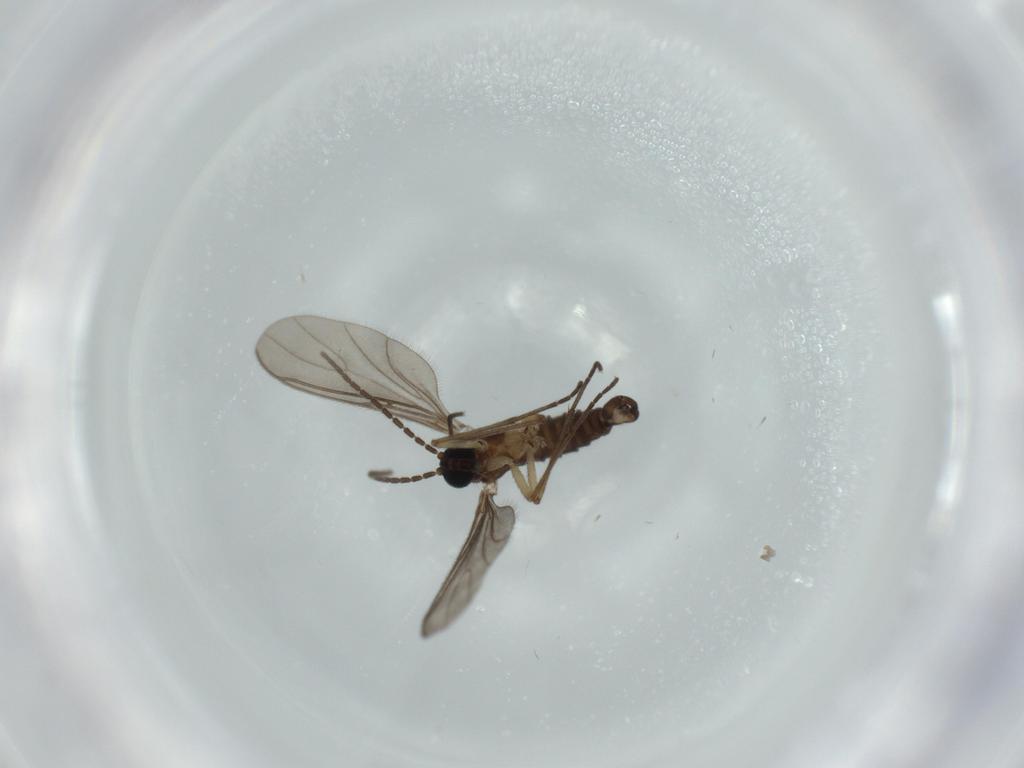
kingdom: Animalia
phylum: Arthropoda
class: Insecta
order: Diptera
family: Sciaridae
